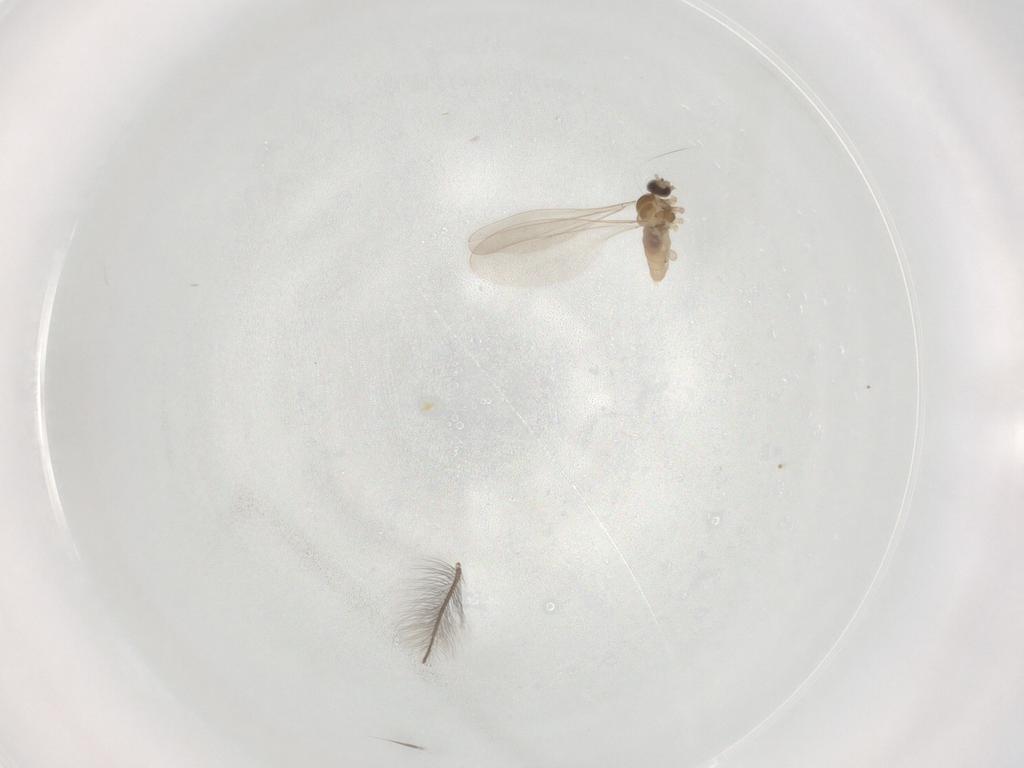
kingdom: Animalia
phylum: Arthropoda
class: Insecta
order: Diptera
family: Cecidomyiidae
